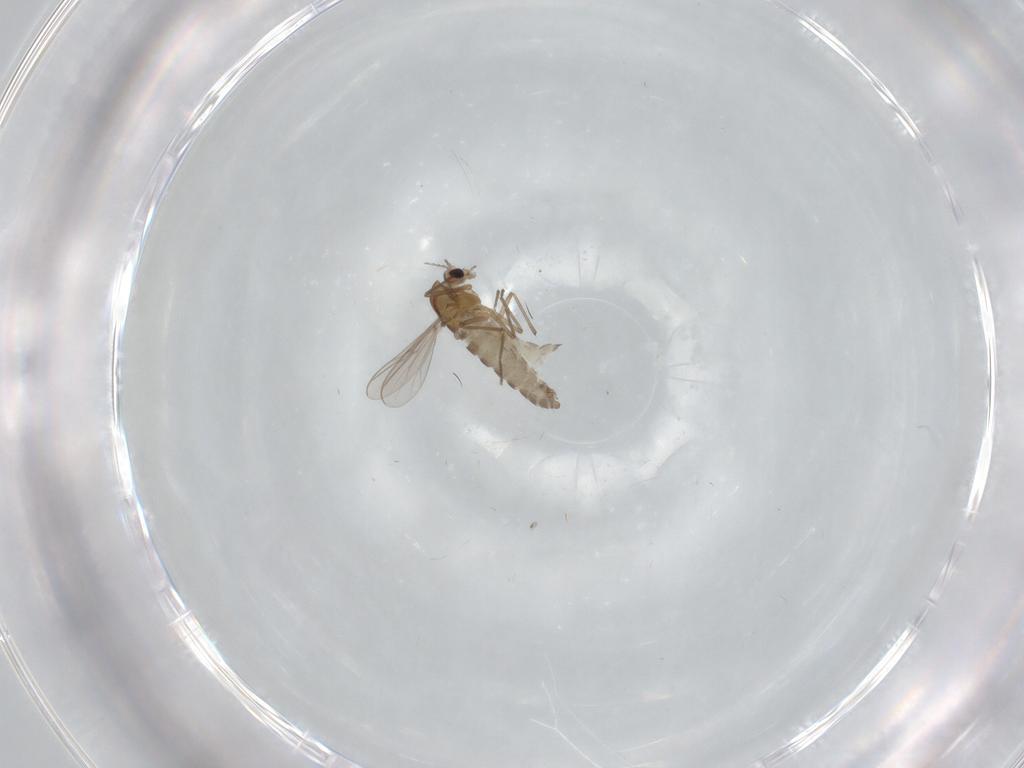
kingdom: Animalia
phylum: Arthropoda
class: Insecta
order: Diptera
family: Chironomidae
